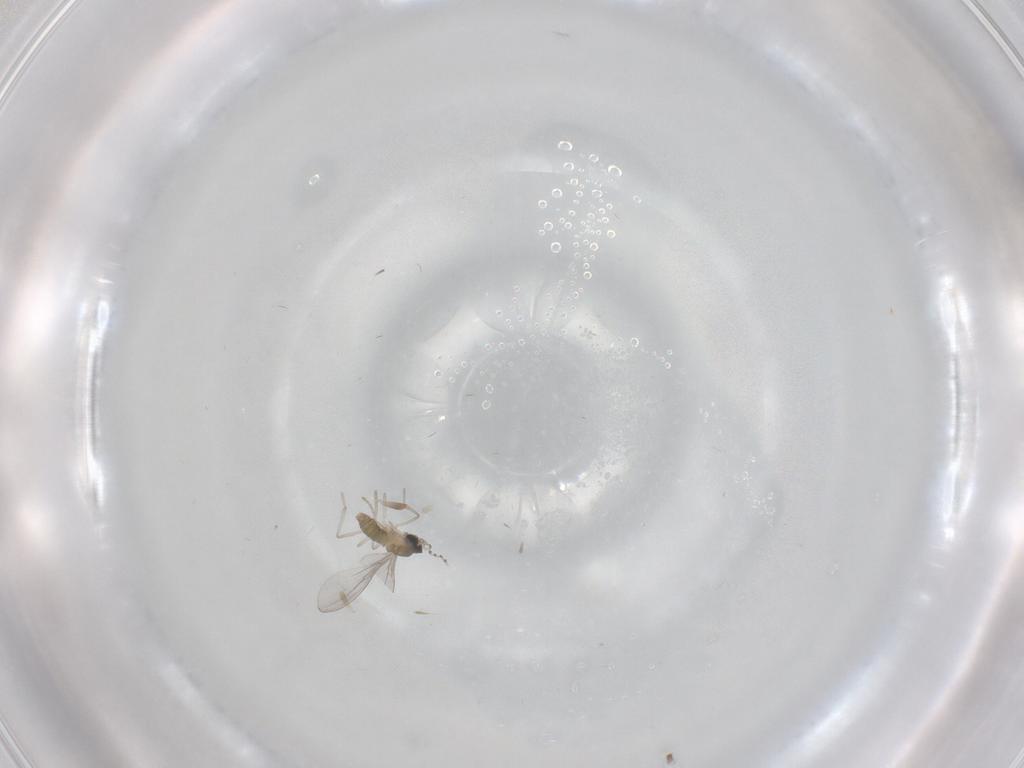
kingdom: Animalia
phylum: Arthropoda
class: Insecta
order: Diptera
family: Cecidomyiidae
